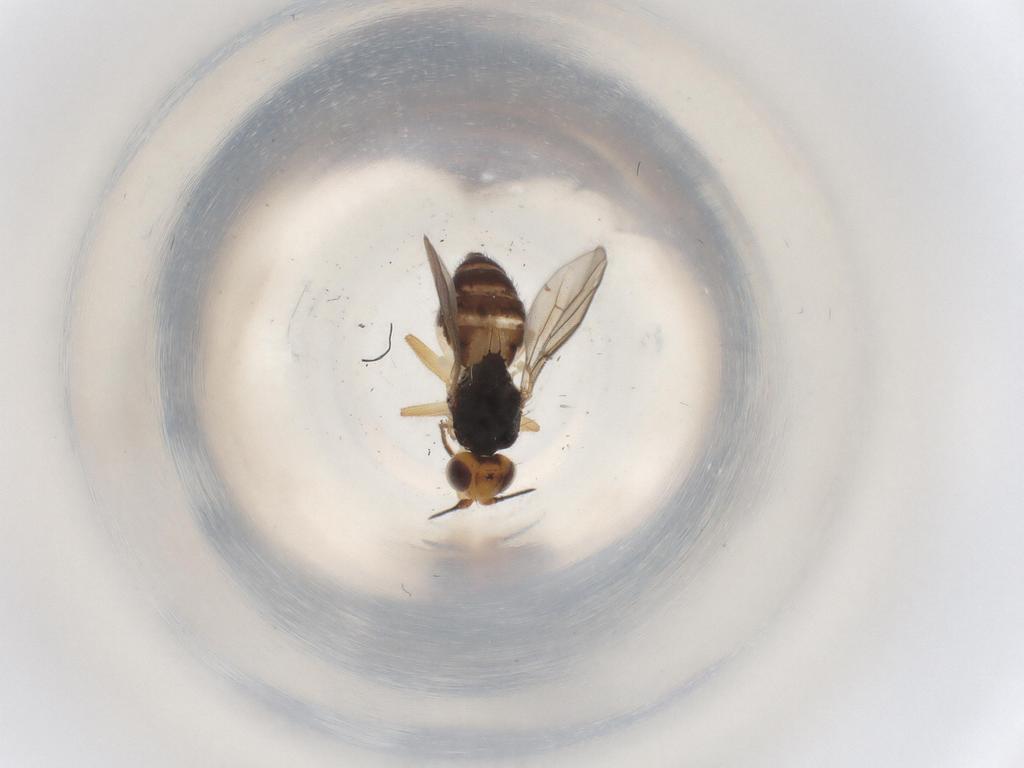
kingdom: Animalia
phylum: Arthropoda
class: Insecta
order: Diptera
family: Chloropidae
